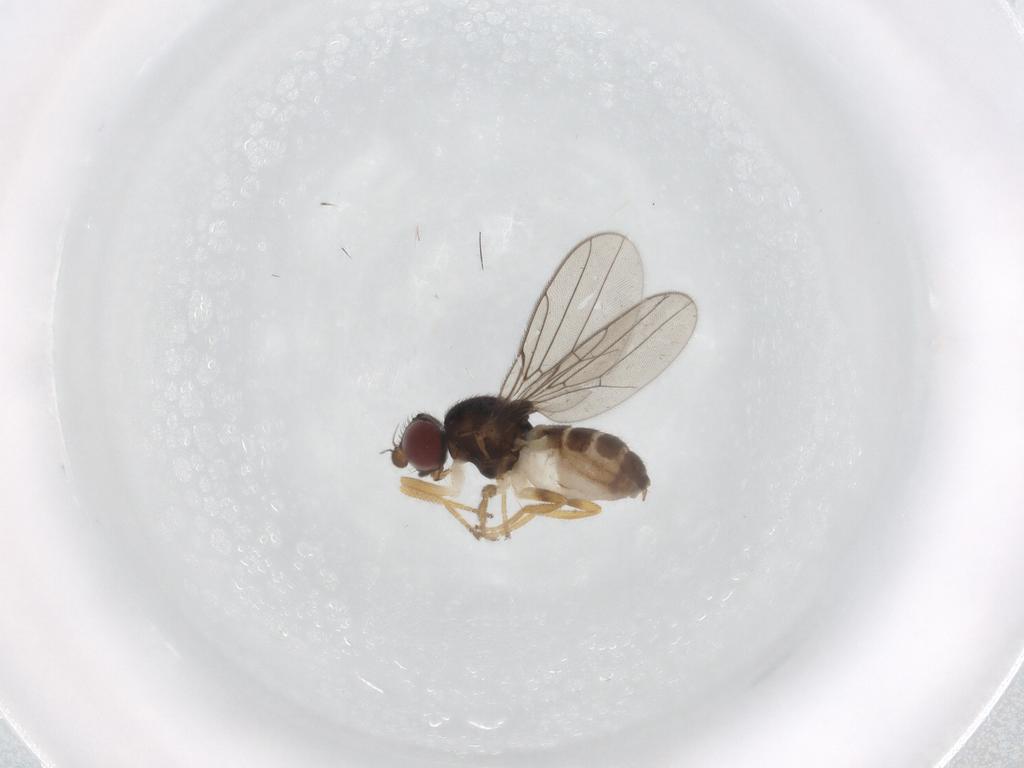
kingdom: Animalia
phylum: Arthropoda
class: Insecta
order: Diptera
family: Chloropidae
